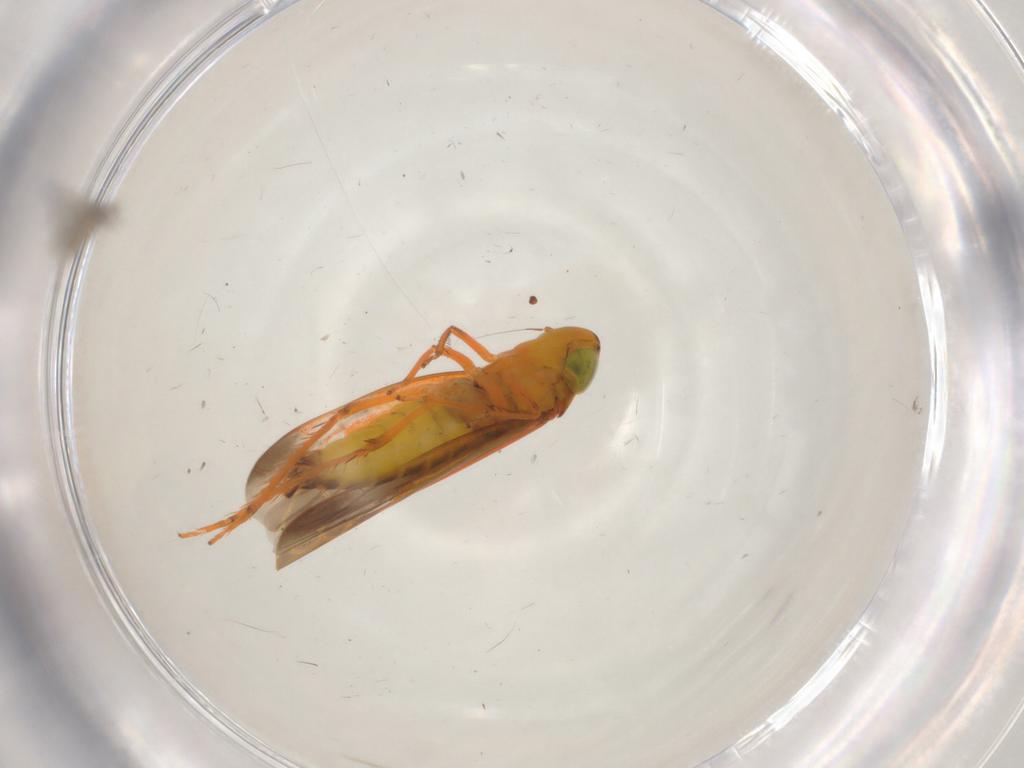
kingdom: Animalia
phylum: Arthropoda
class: Insecta
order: Hemiptera
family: Cicadellidae
